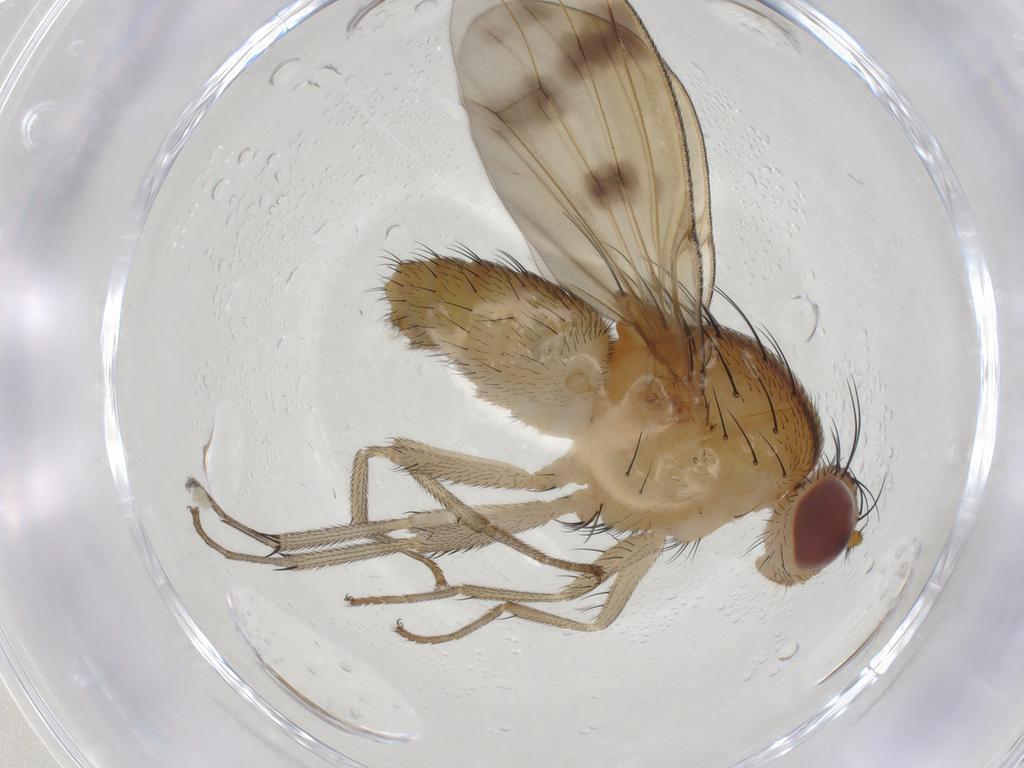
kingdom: Animalia
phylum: Arthropoda
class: Insecta
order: Diptera
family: Lauxaniidae
